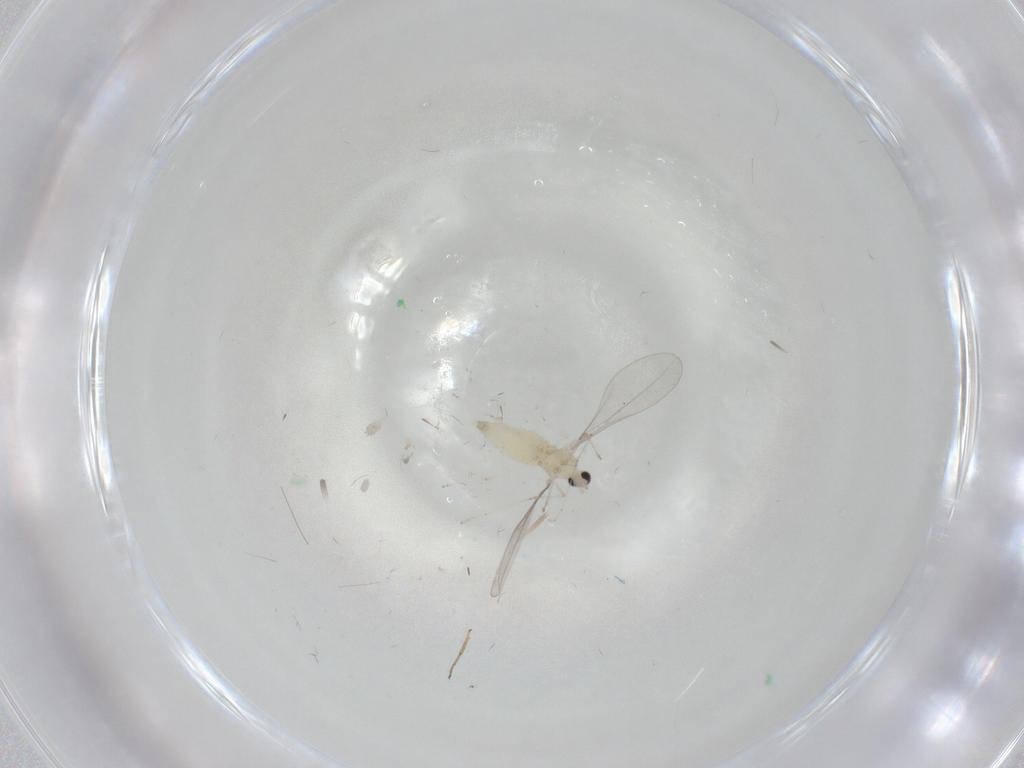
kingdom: Animalia
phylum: Arthropoda
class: Insecta
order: Diptera
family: Cecidomyiidae
